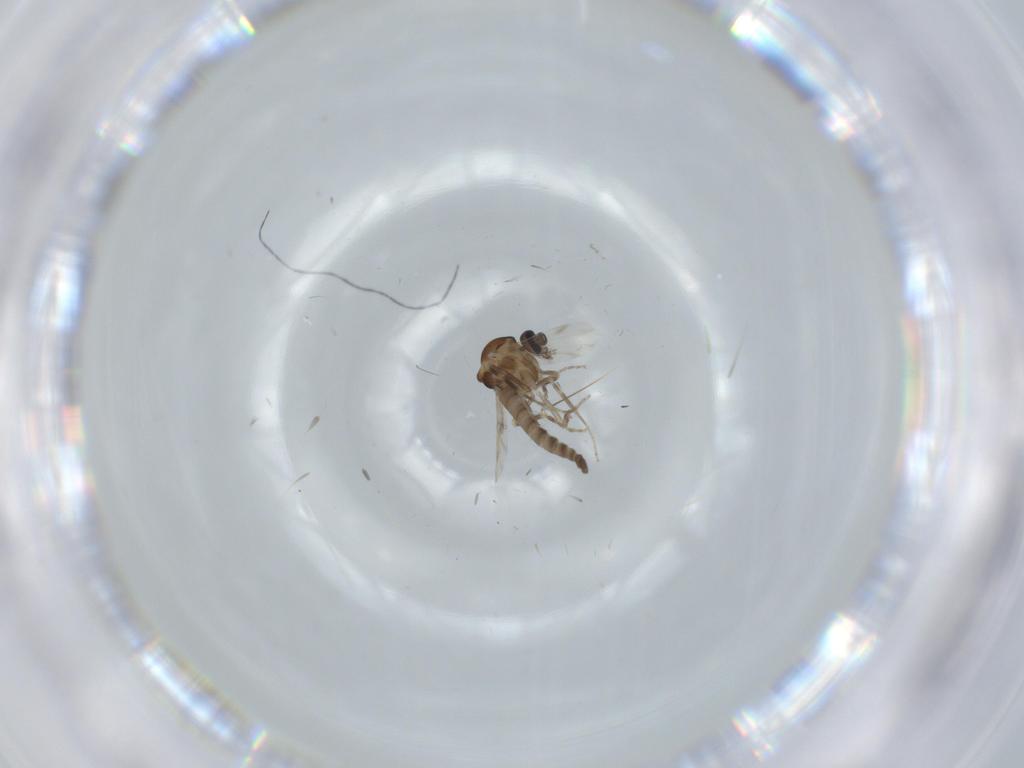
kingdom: Animalia
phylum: Arthropoda
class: Insecta
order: Diptera
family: Ceratopogonidae
